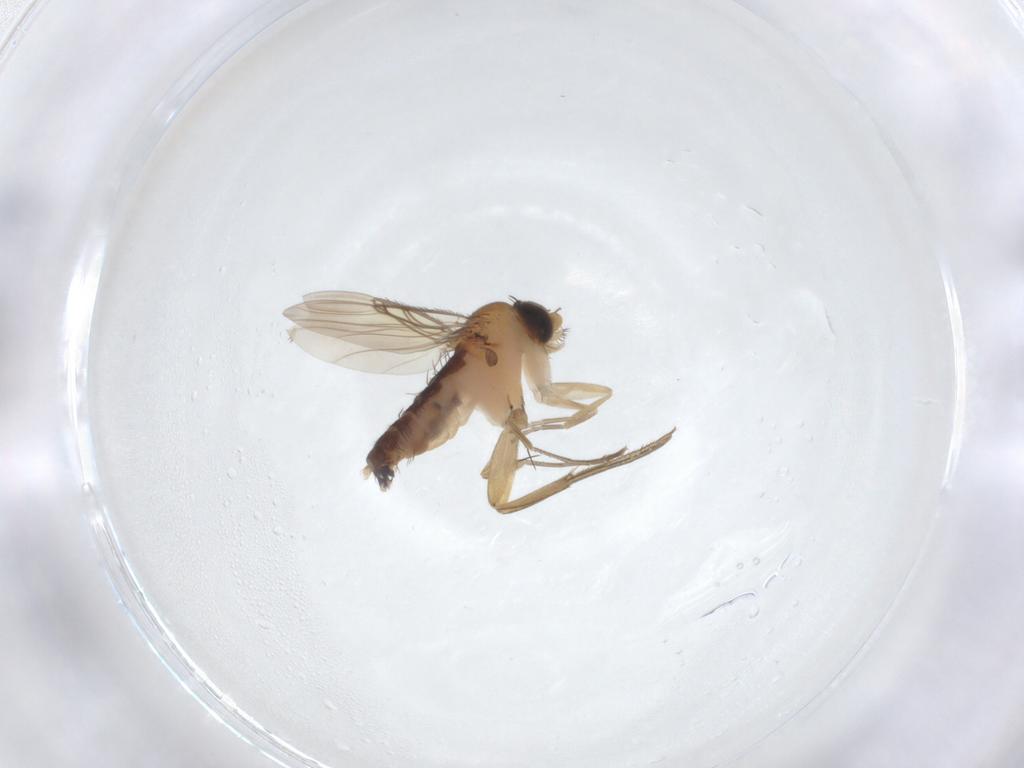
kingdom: Animalia
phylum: Arthropoda
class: Insecta
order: Diptera
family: Phoridae
